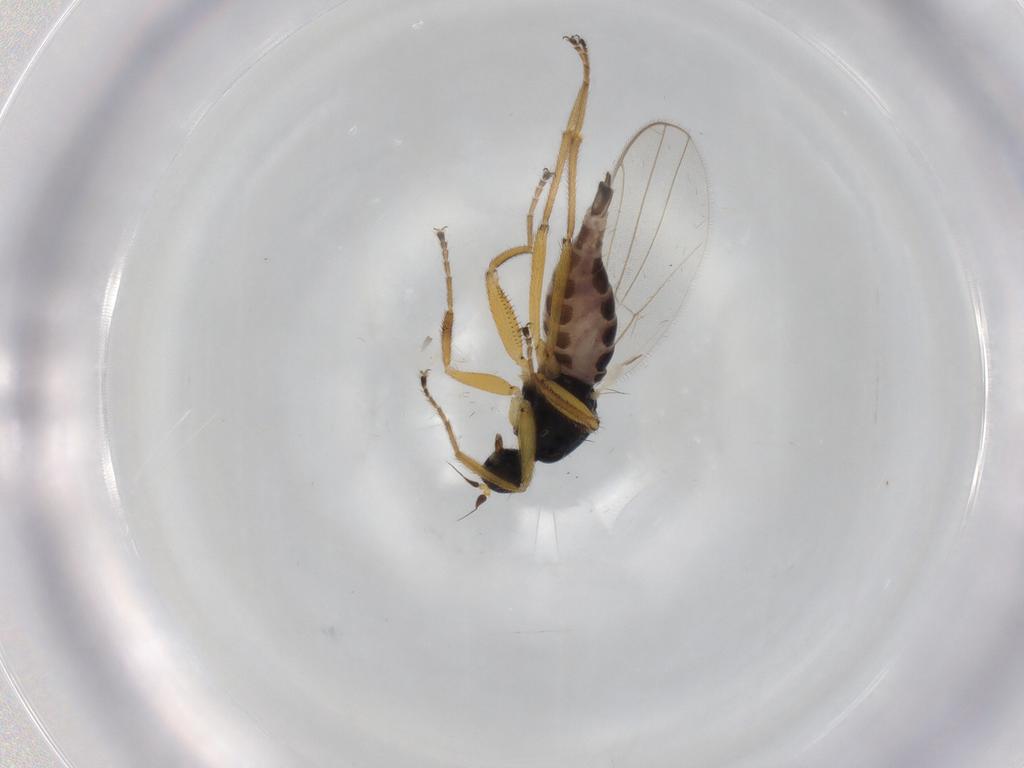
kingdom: Animalia
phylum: Arthropoda
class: Insecta
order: Diptera
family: Hybotidae
